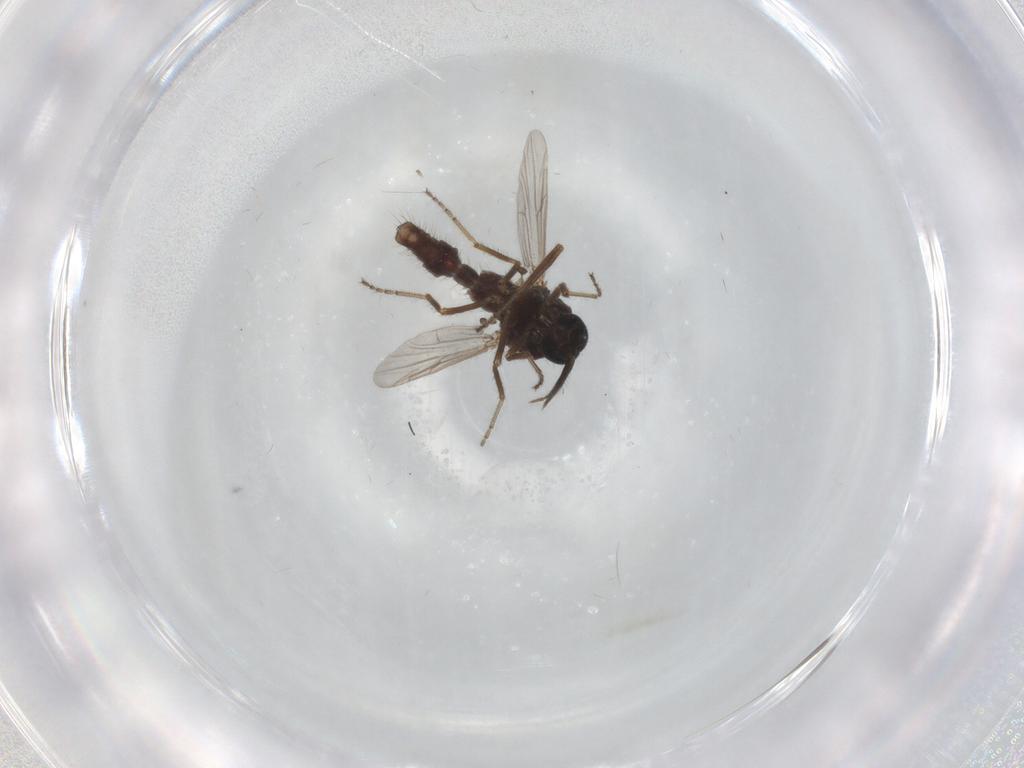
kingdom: Animalia
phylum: Arthropoda
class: Insecta
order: Diptera
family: Ceratopogonidae
